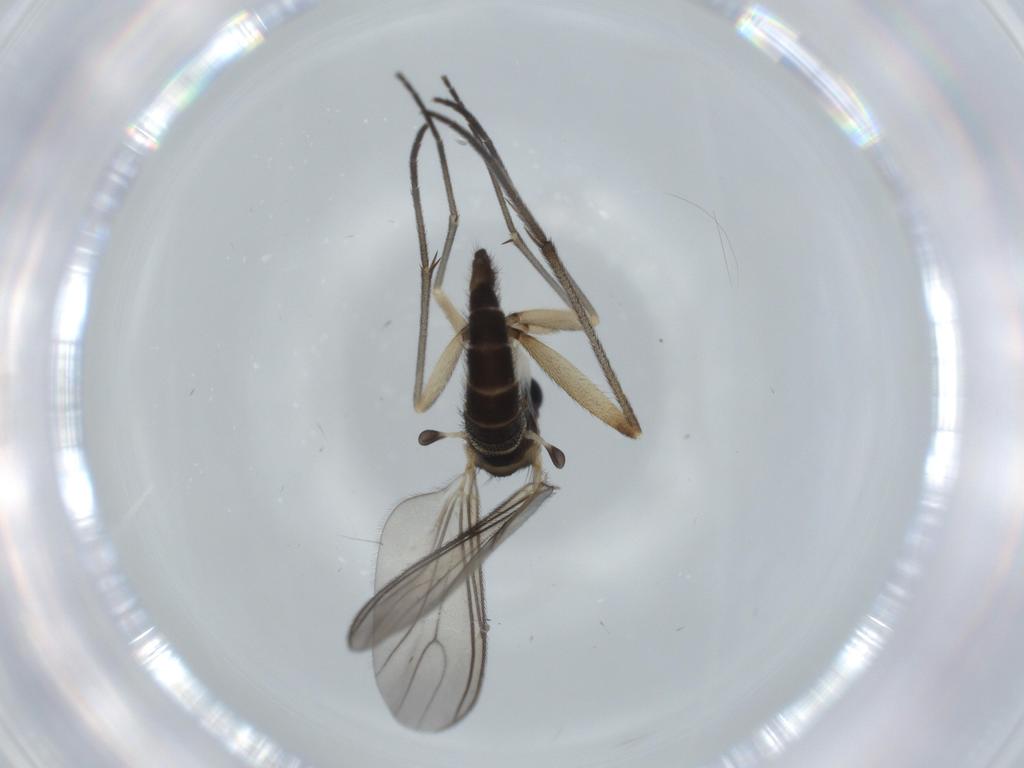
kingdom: Animalia
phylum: Arthropoda
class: Insecta
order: Diptera
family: Sciaridae
